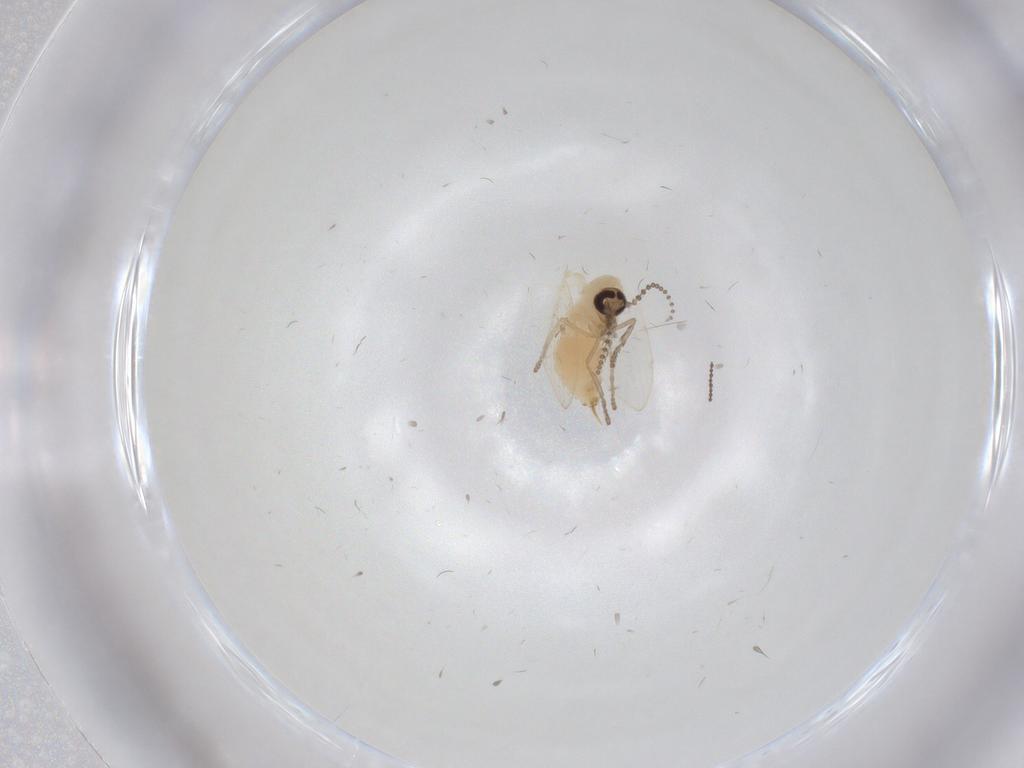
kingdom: Animalia
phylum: Arthropoda
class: Insecta
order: Diptera
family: Psychodidae
